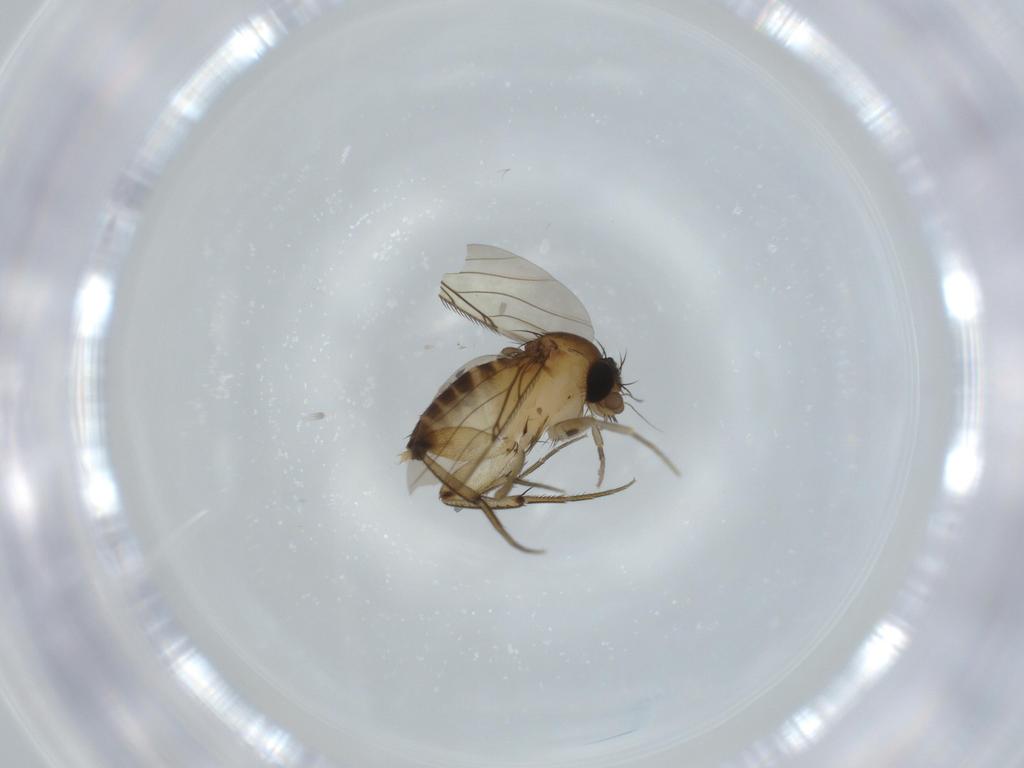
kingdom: Animalia
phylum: Arthropoda
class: Insecta
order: Diptera
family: Phoridae
